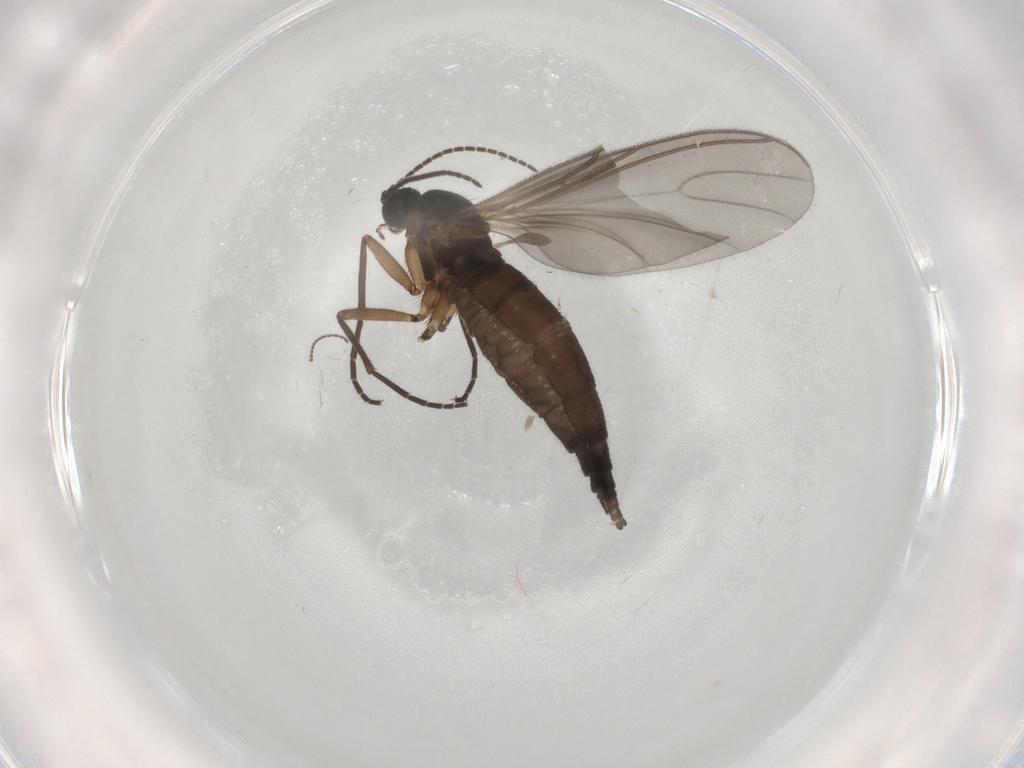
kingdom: Animalia
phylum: Arthropoda
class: Insecta
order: Diptera
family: Sciaridae
